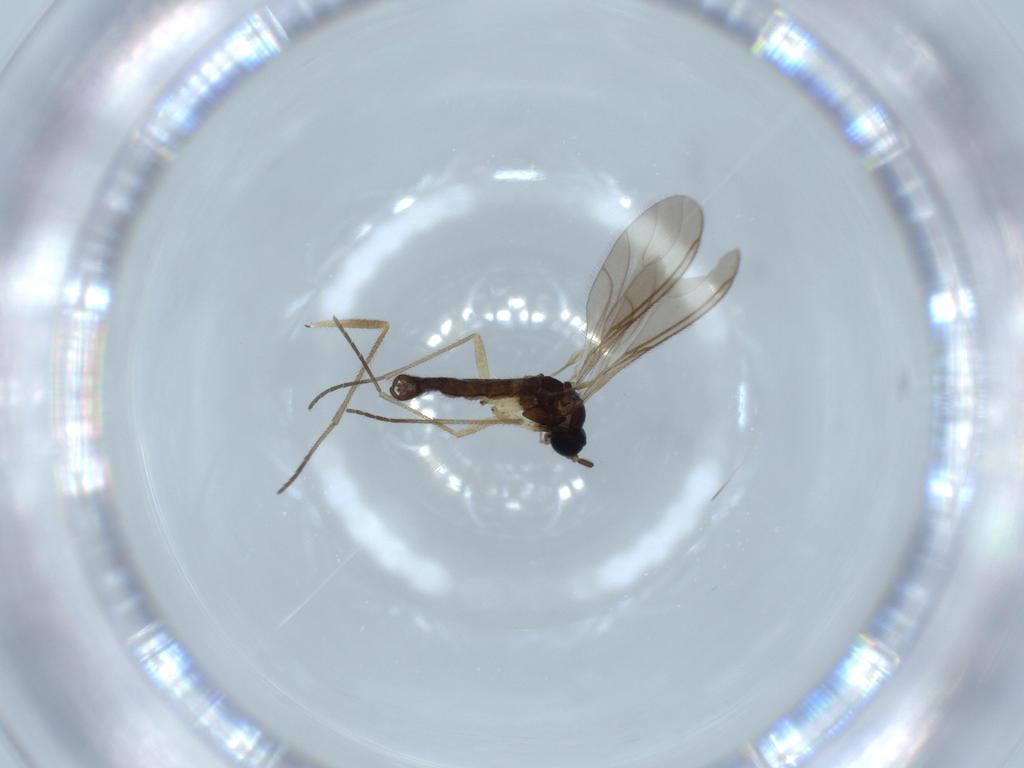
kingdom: Animalia
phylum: Arthropoda
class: Insecta
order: Diptera
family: Sciaridae
